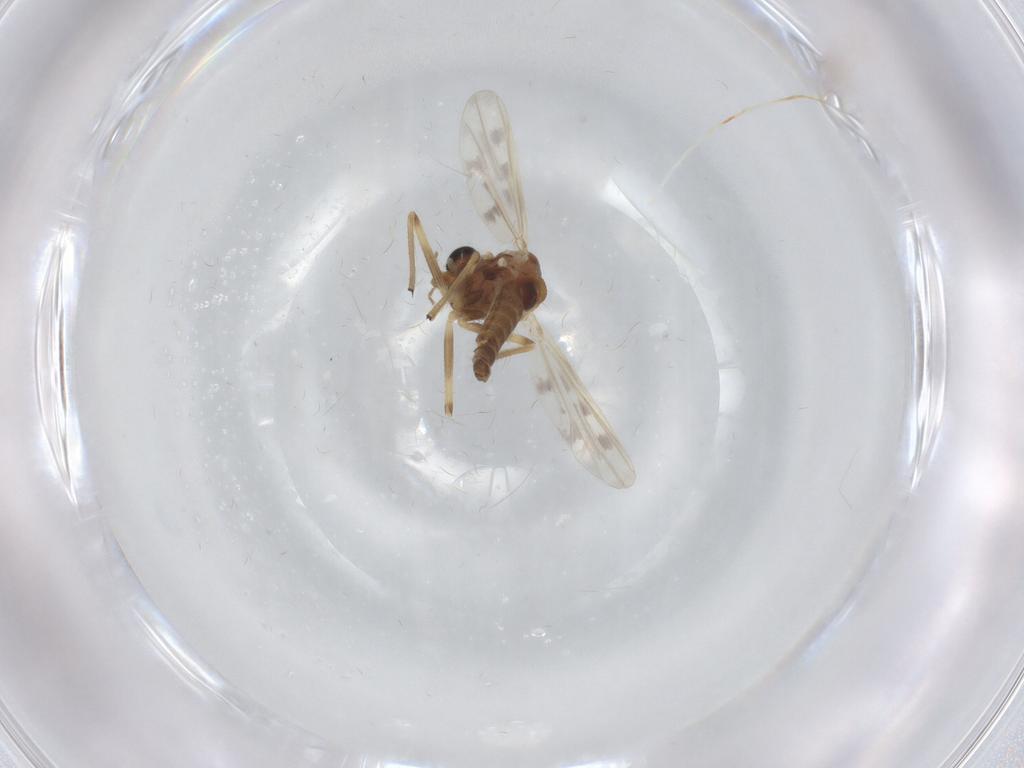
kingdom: Animalia
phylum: Arthropoda
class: Insecta
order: Diptera
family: Chironomidae
